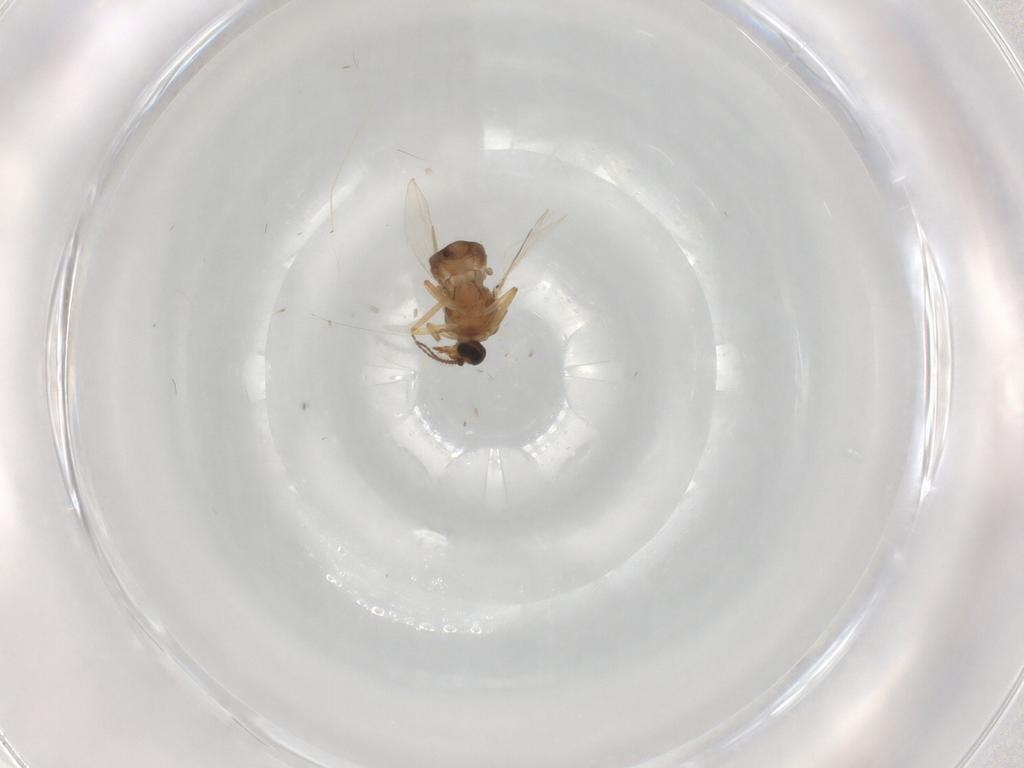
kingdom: Animalia
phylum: Arthropoda
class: Insecta
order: Diptera
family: Ceratopogonidae
